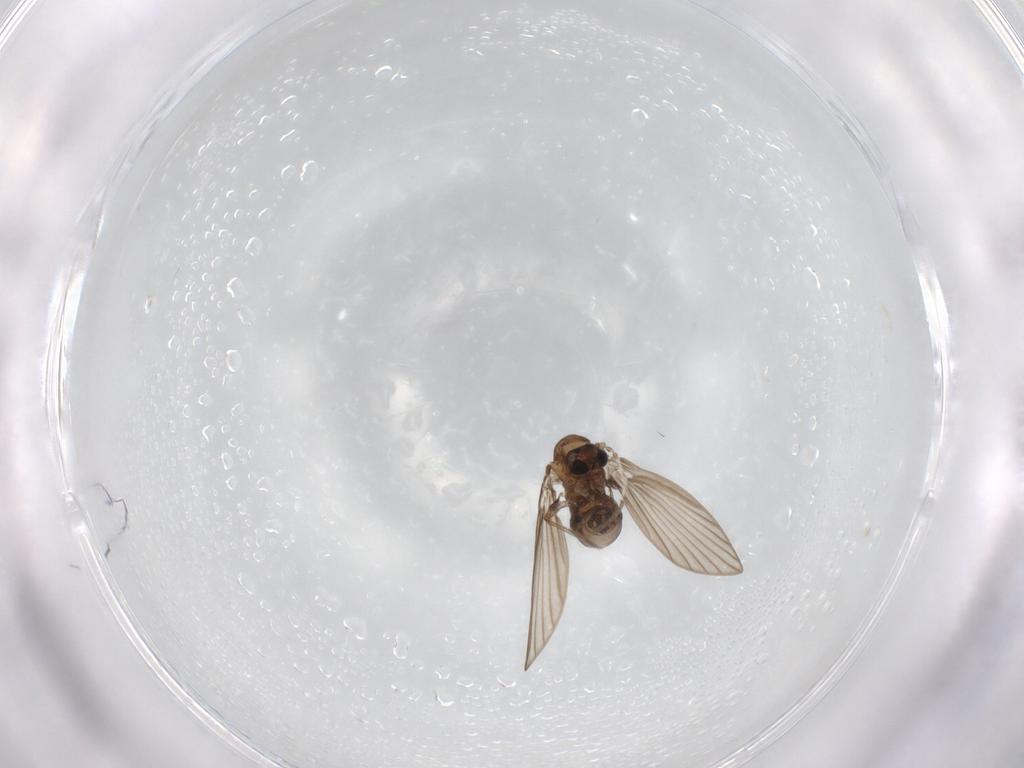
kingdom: Animalia
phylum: Arthropoda
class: Insecta
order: Diptera
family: Psychodidae
